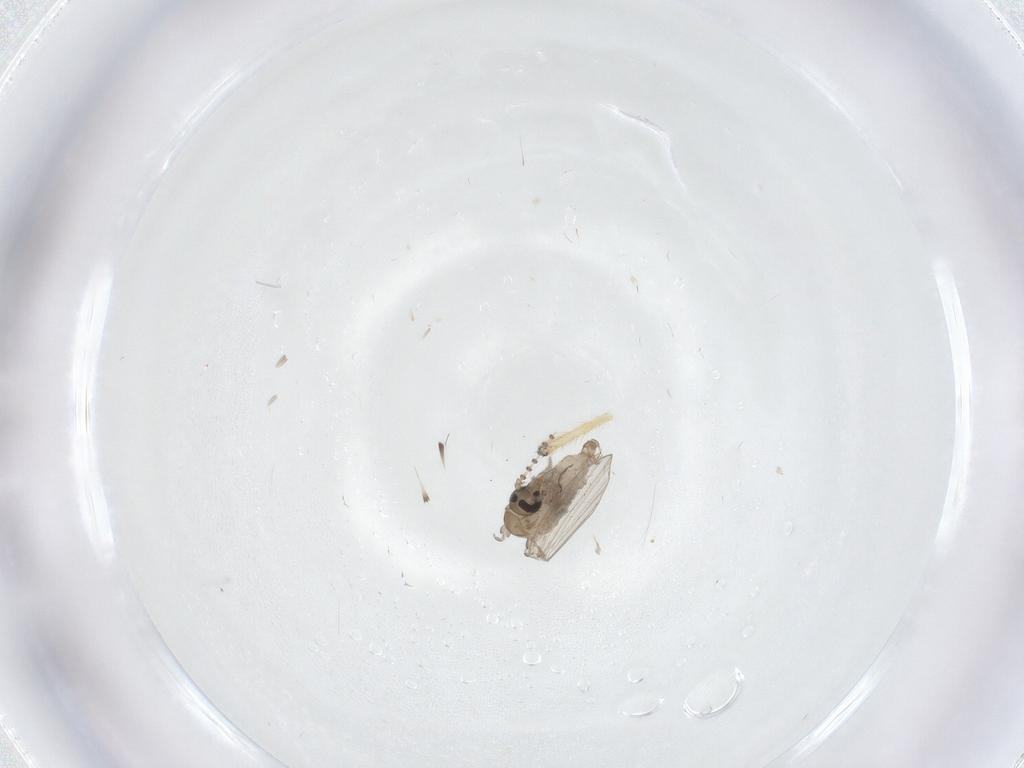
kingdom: Animalia
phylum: Arthropoda
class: Insecta
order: Diptera
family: Psychodidae
